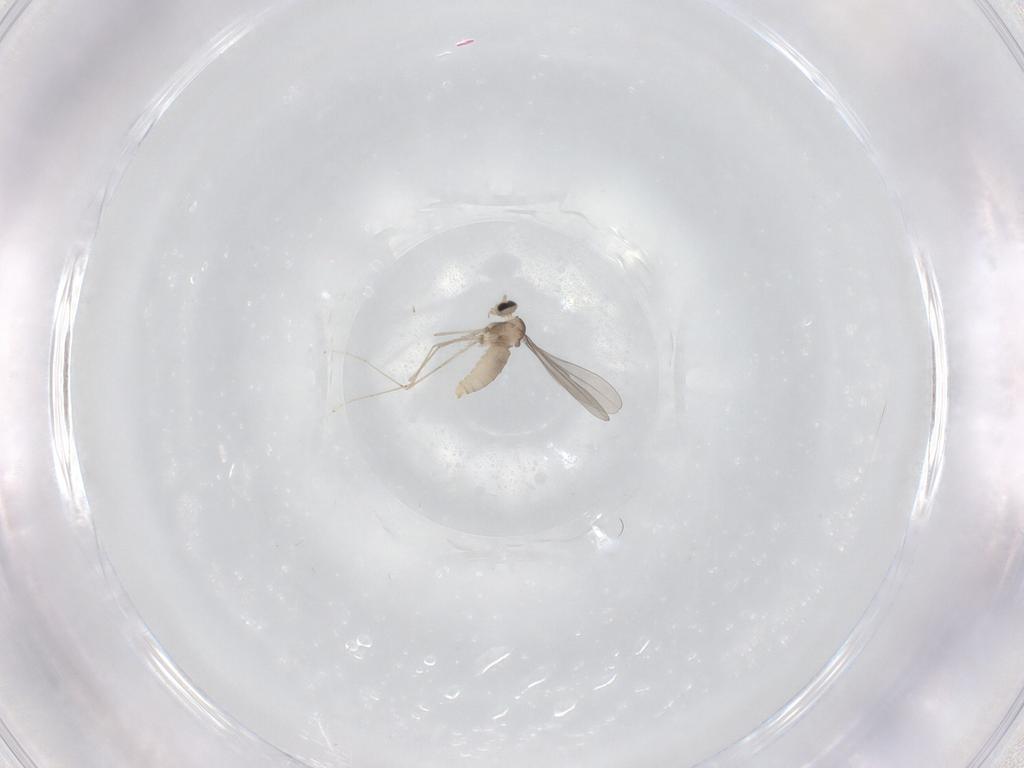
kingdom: Animalia
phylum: Arthropoda
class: Insecta
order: Diptera
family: Cecidomyiidae
